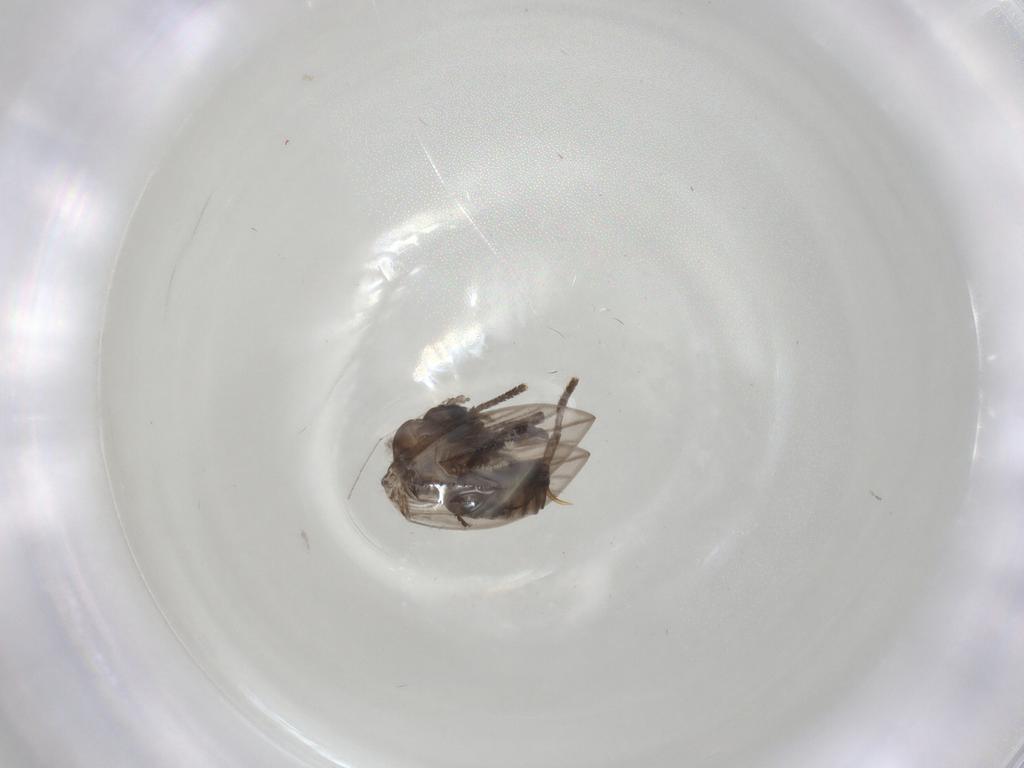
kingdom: Animalia
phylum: Arthropoda
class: Insecta
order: Diptera
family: Psychodidae
